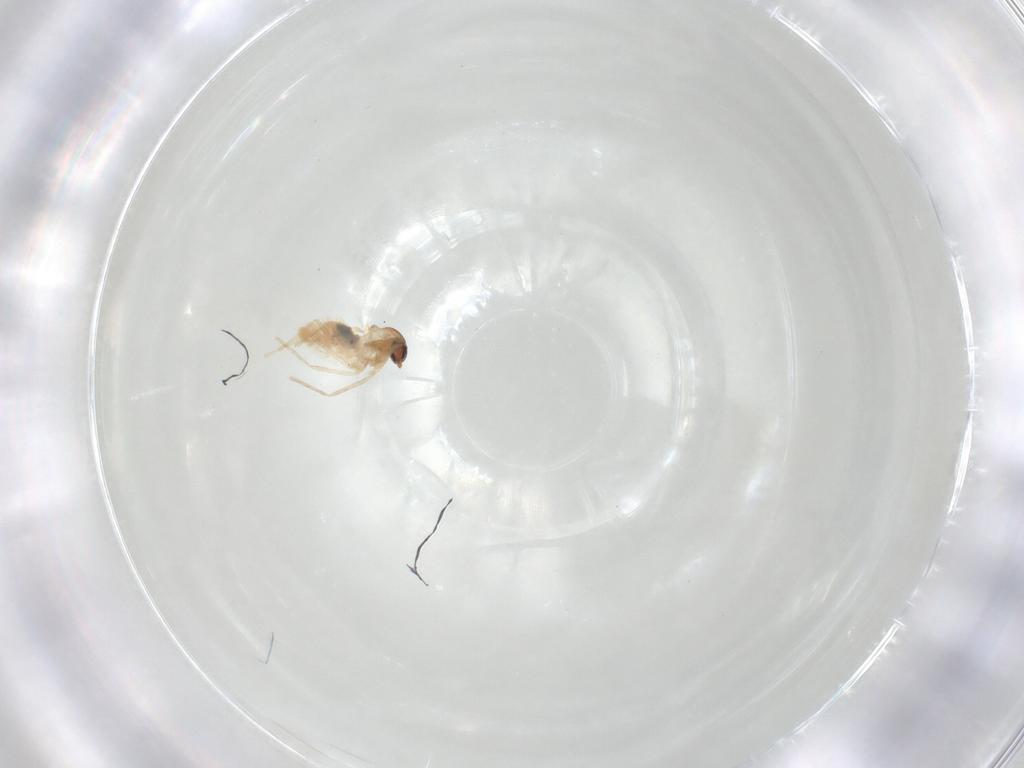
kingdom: Animalia
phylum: Arthropoda
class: Insecta
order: Diptera
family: Cecidomyiidae
